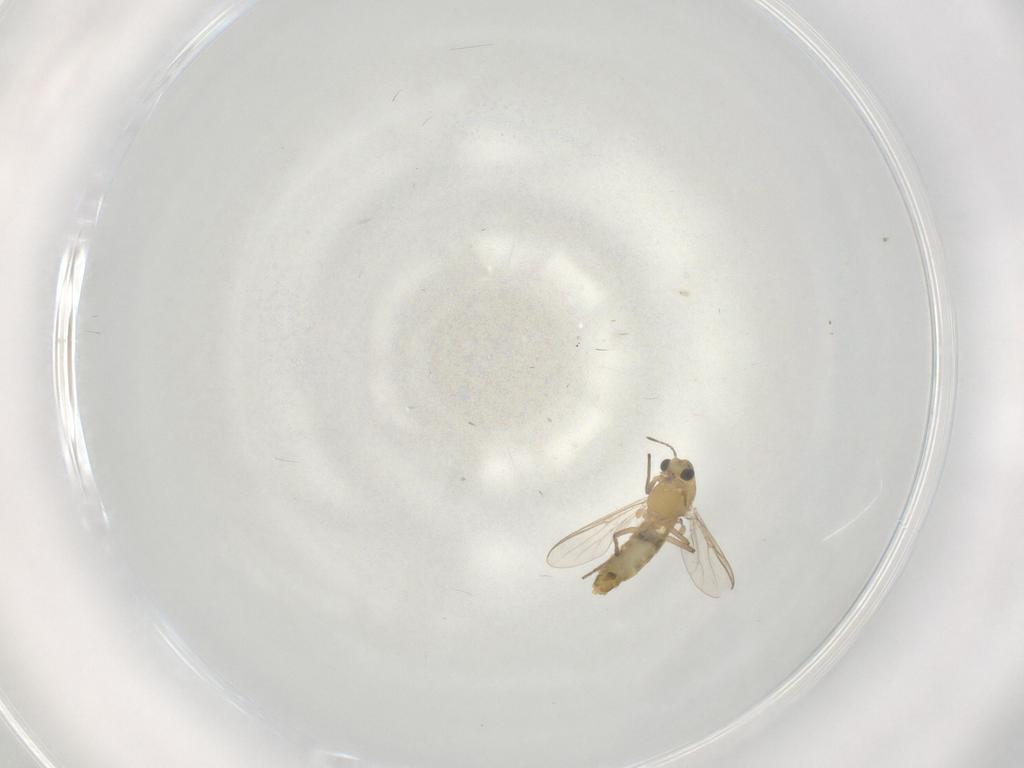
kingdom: Animalia
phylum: Arthropoda
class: Insecta
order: Diptera
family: Chironomidae
